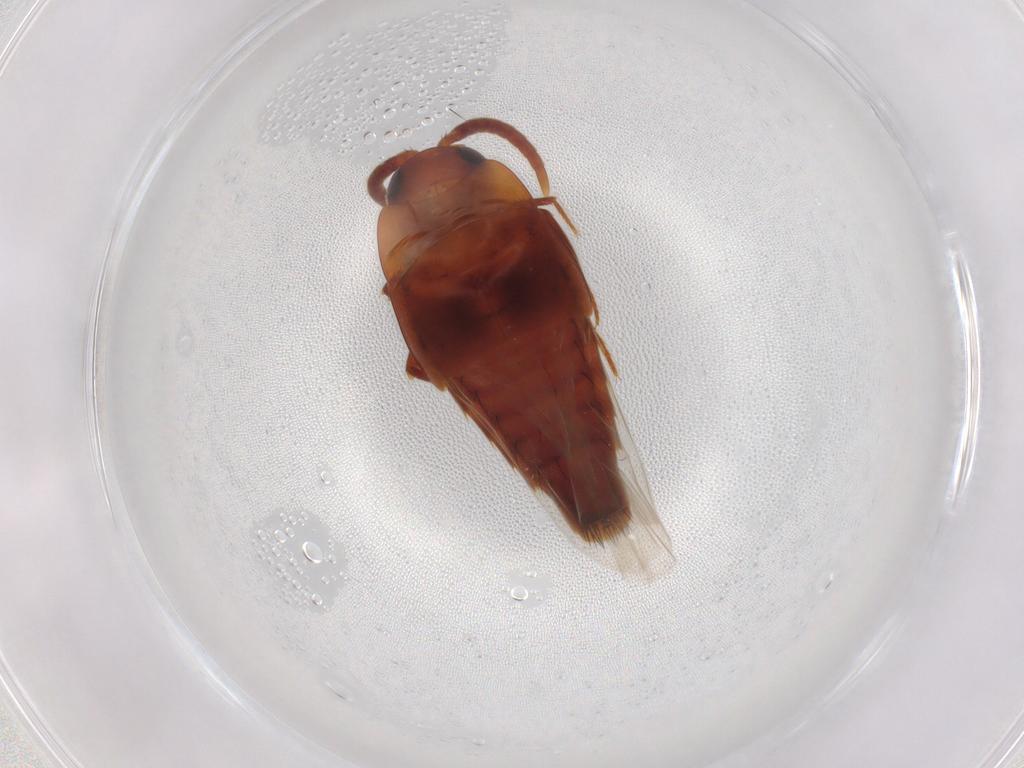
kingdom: Animalia
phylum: Arthropoda
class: Insecta
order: Coleoptera
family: Staphylinidae
